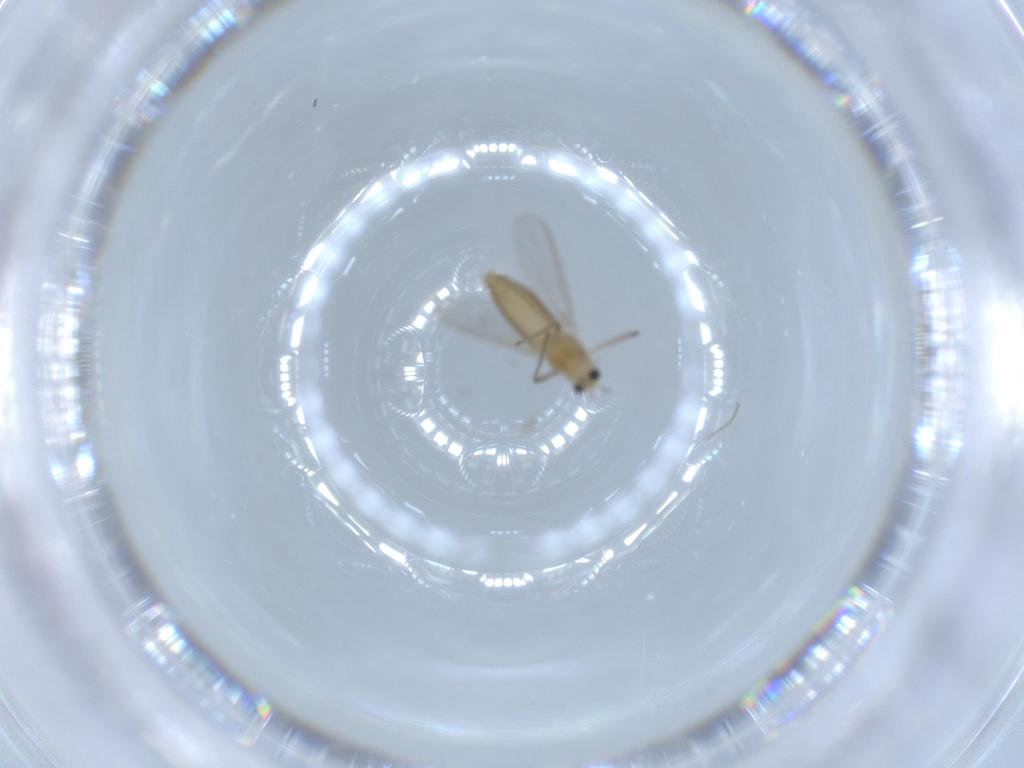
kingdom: Animalia
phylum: Arthropoda
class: Insecta
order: Diptera
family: Chironomidae
